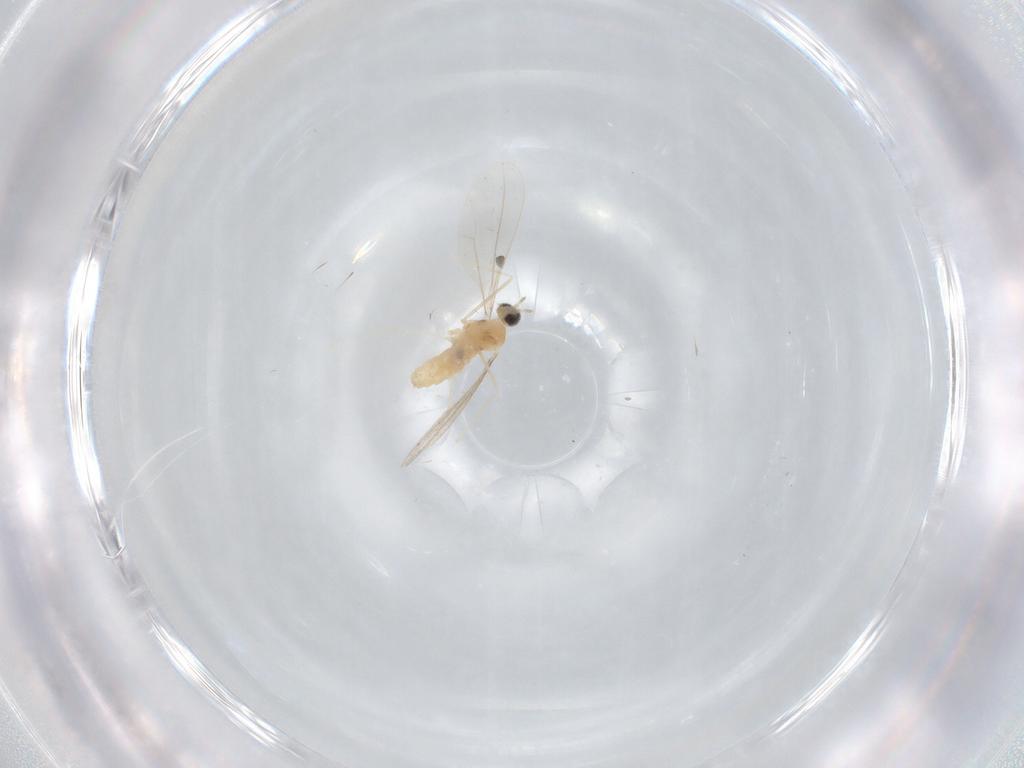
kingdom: Animalia
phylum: Arthropoda
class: Insecta
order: Diptera
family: Cecidomyiidae
